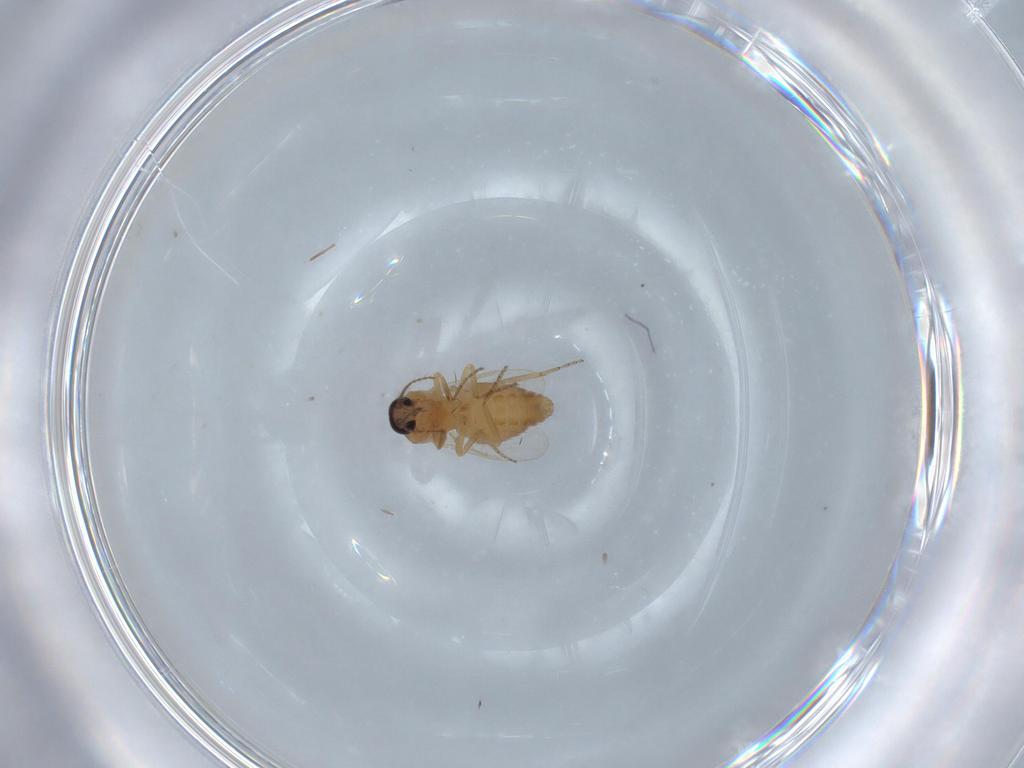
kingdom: Animalia
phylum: Arthropoda
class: Insecta
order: Diptera
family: Ceratopogonidae
